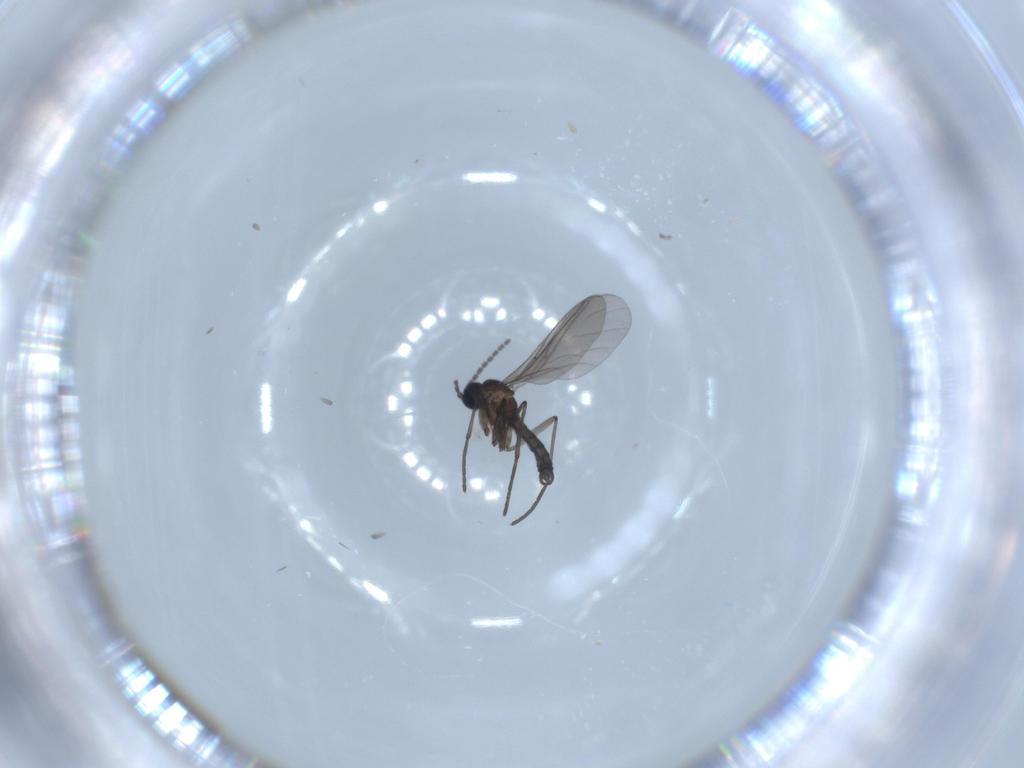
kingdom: Animalia
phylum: Arthropoda
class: Insecta
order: Diptera
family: Sciaridae
